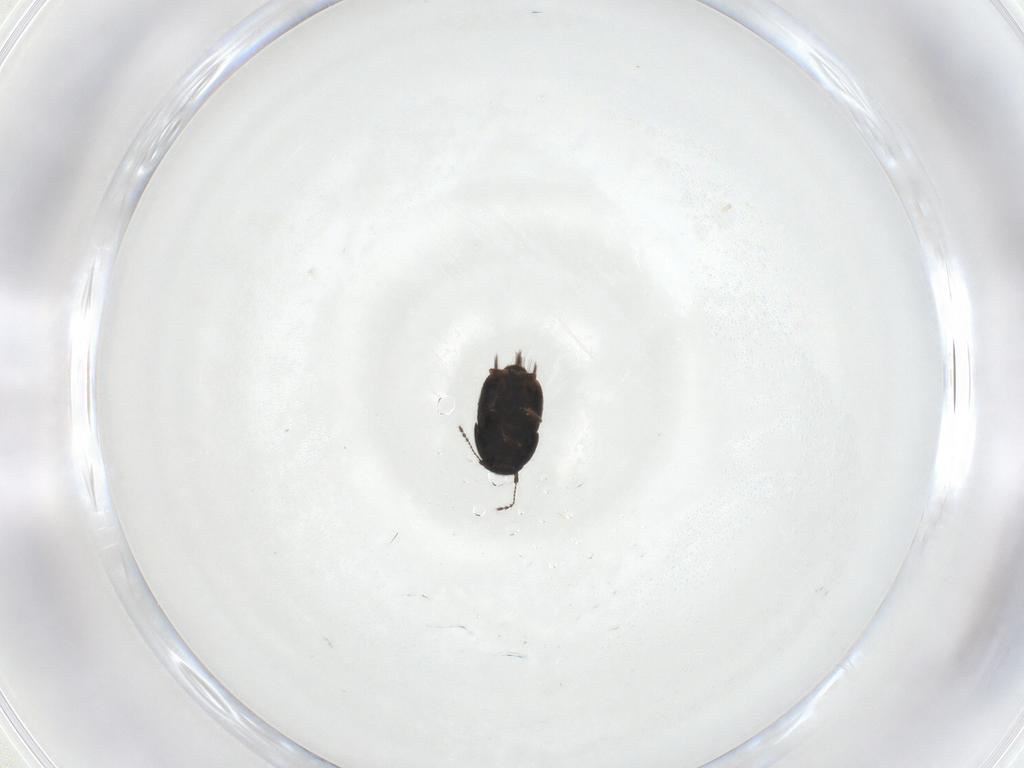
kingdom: Animalia
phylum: Arthropoda
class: Insecta
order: Coleoptera
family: Ptiliidae
